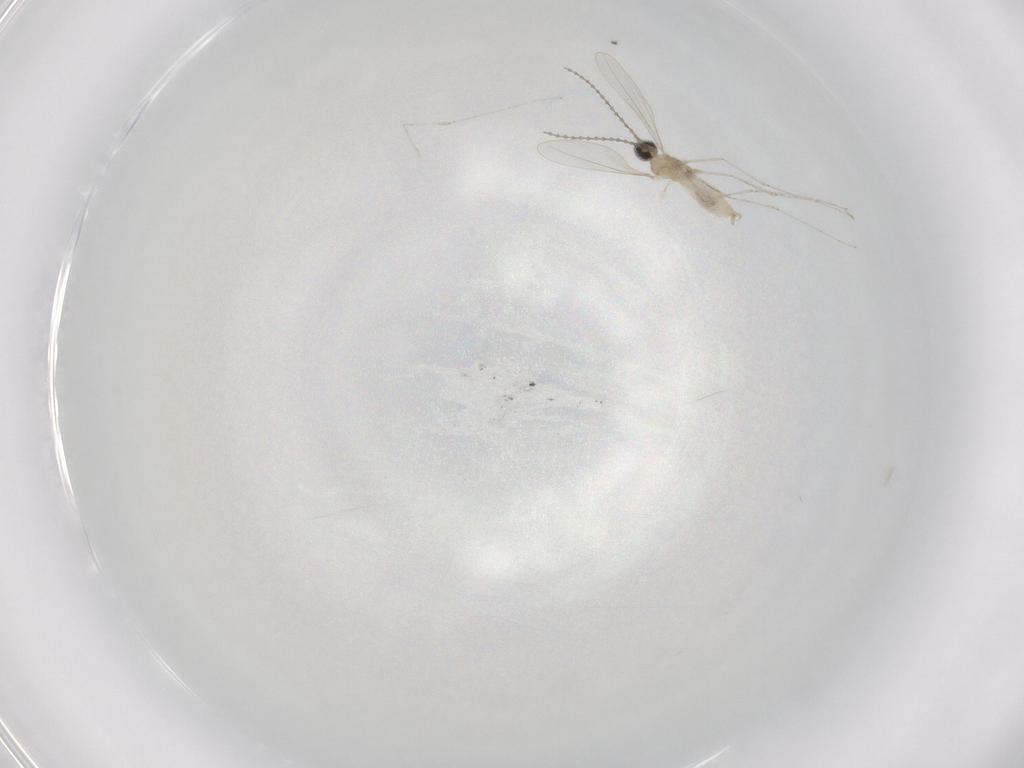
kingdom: Animalia
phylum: Arthropoda
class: Insecta
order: Diptera
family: Cecidomyiidae
